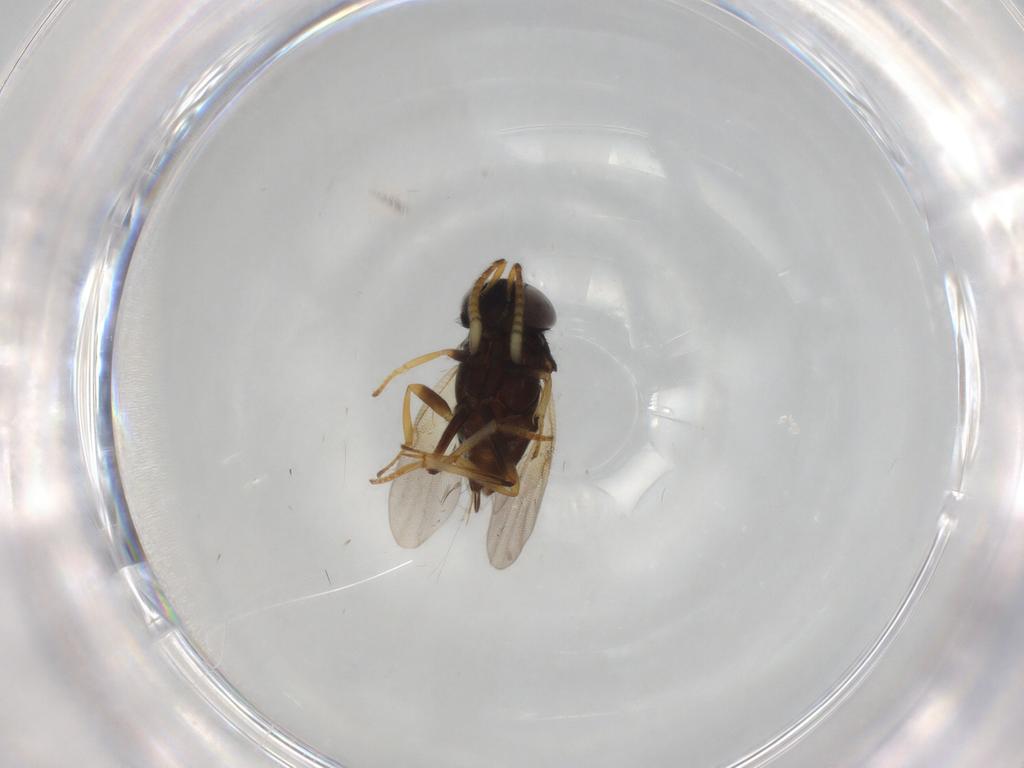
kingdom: Animalia
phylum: Arthropoda
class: Insecta
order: Hymenoptera
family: Encyrtidae
